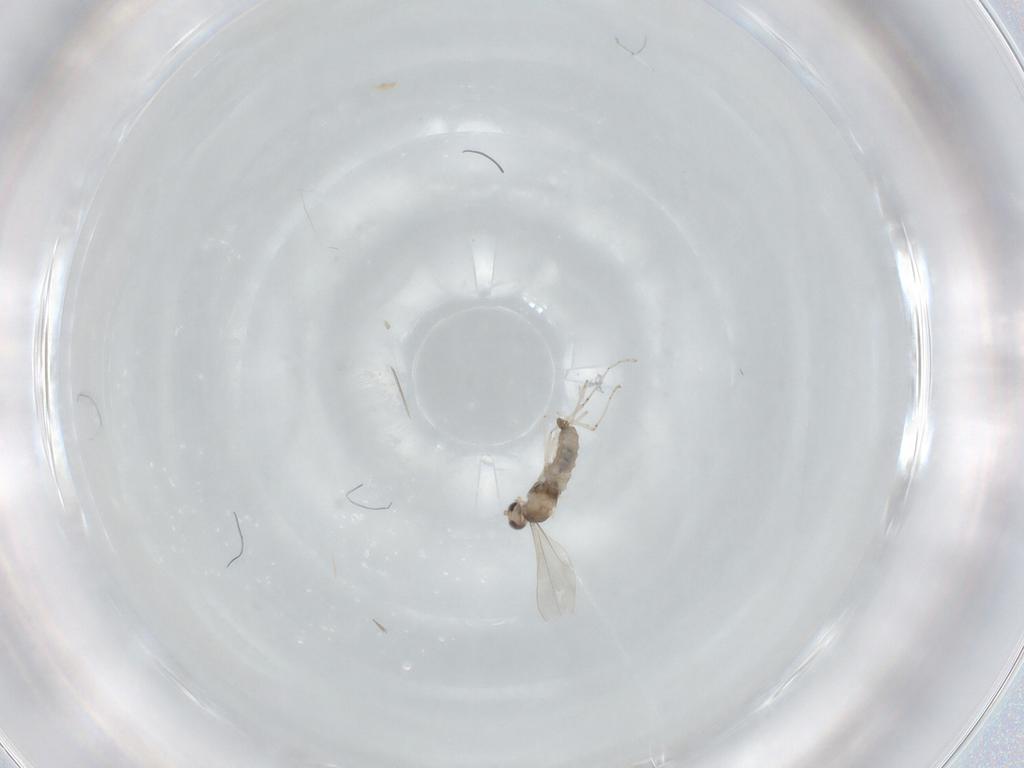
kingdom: Animalia
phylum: Arthropoda
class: Insecta
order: Diptera
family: Cecidomyiidae
